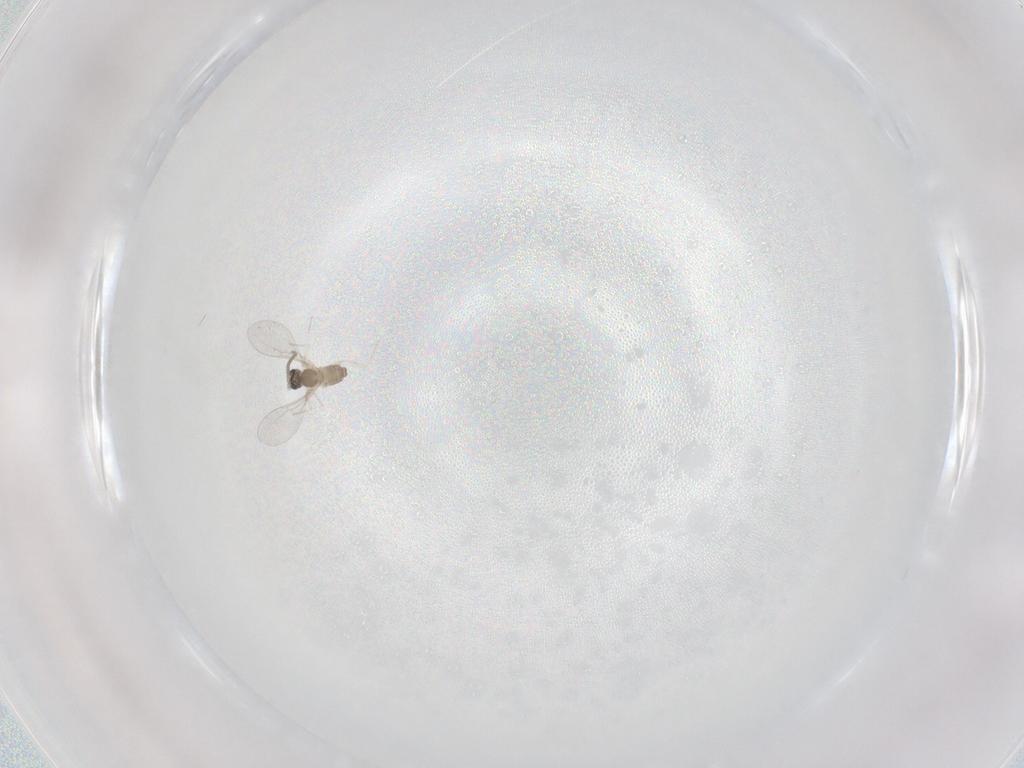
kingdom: Animalia
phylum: Arthropoda
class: Insecta
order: Diptera
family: Cecidomyiidae
